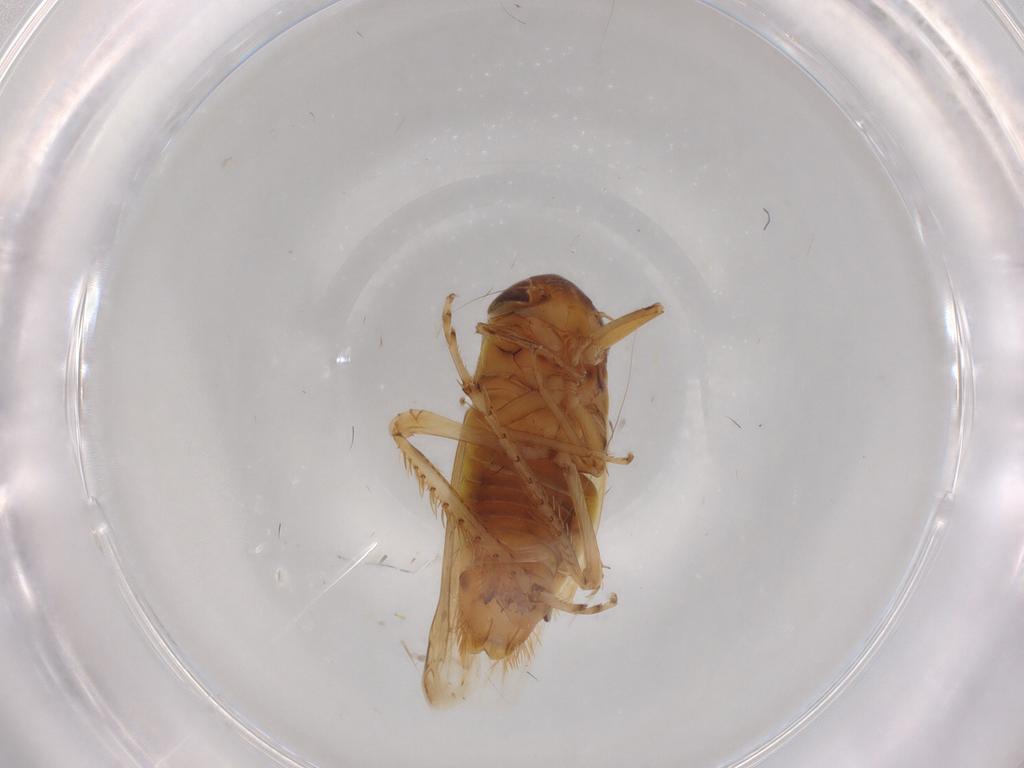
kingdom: Animalia
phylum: Arthropoda
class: Insecta
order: Hemiptera
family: Cicadellidae
